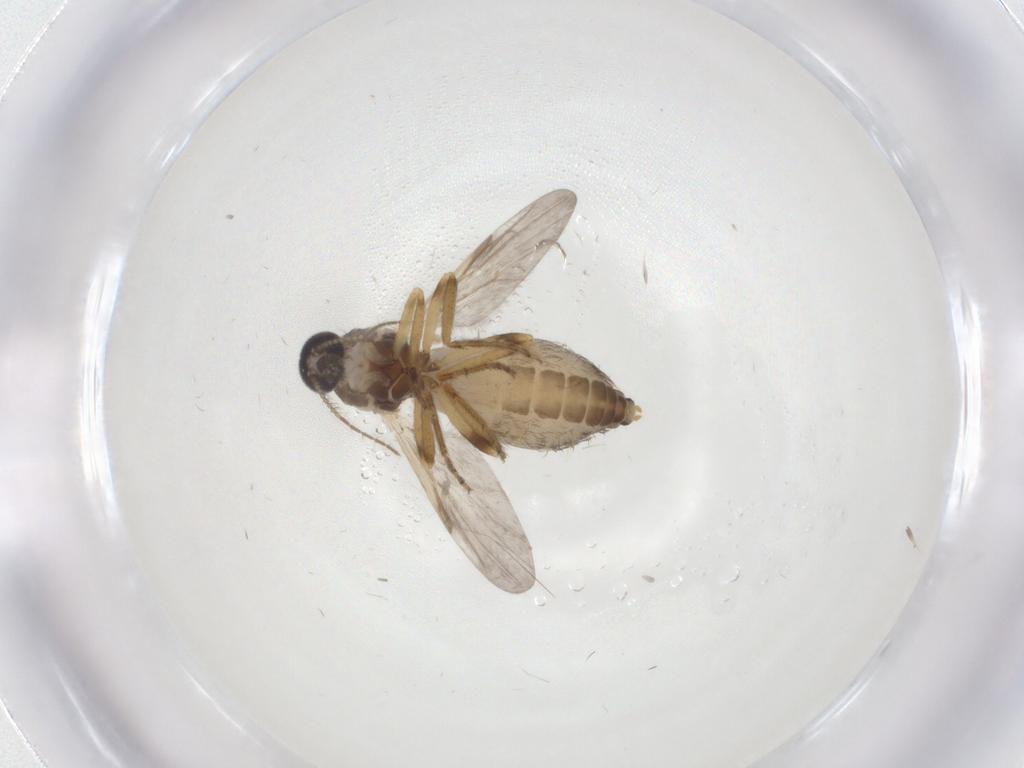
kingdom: Animalia
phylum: Arthropoda
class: Insecta
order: Diptera
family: Ceratopogonidae
